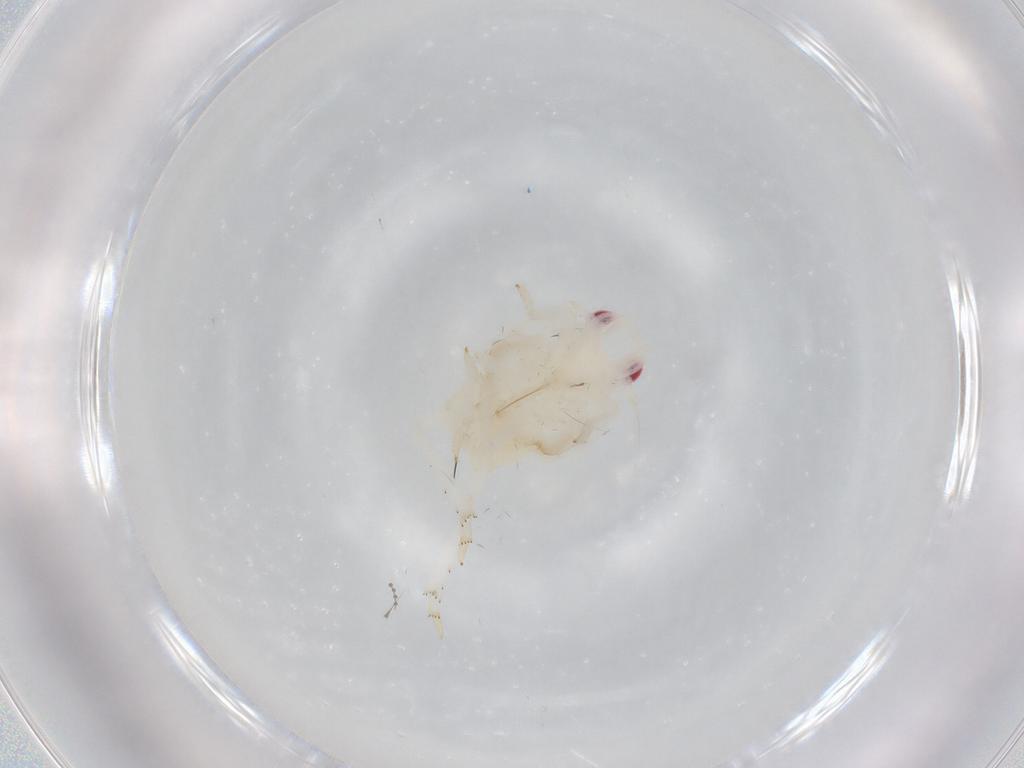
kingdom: Animalia
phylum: Arthropoda
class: Insecta
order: Hemiptera
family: Flatidae
